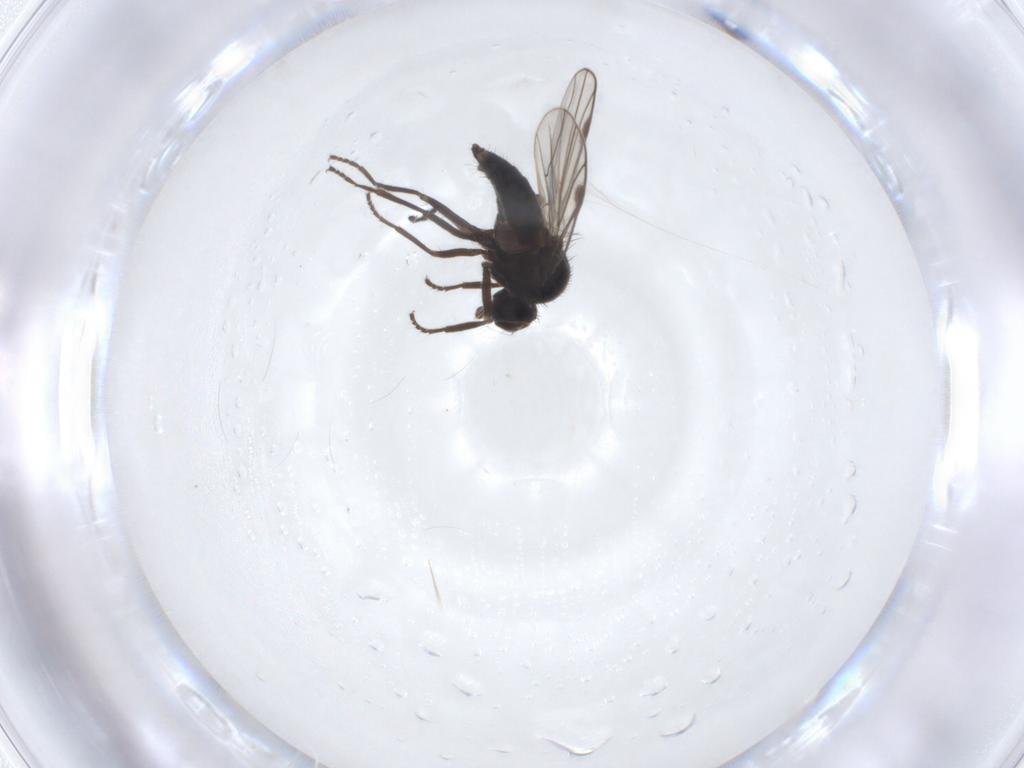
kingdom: Animalia
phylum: Arthropoda
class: Insecta
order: Diptera
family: Hybotidae
